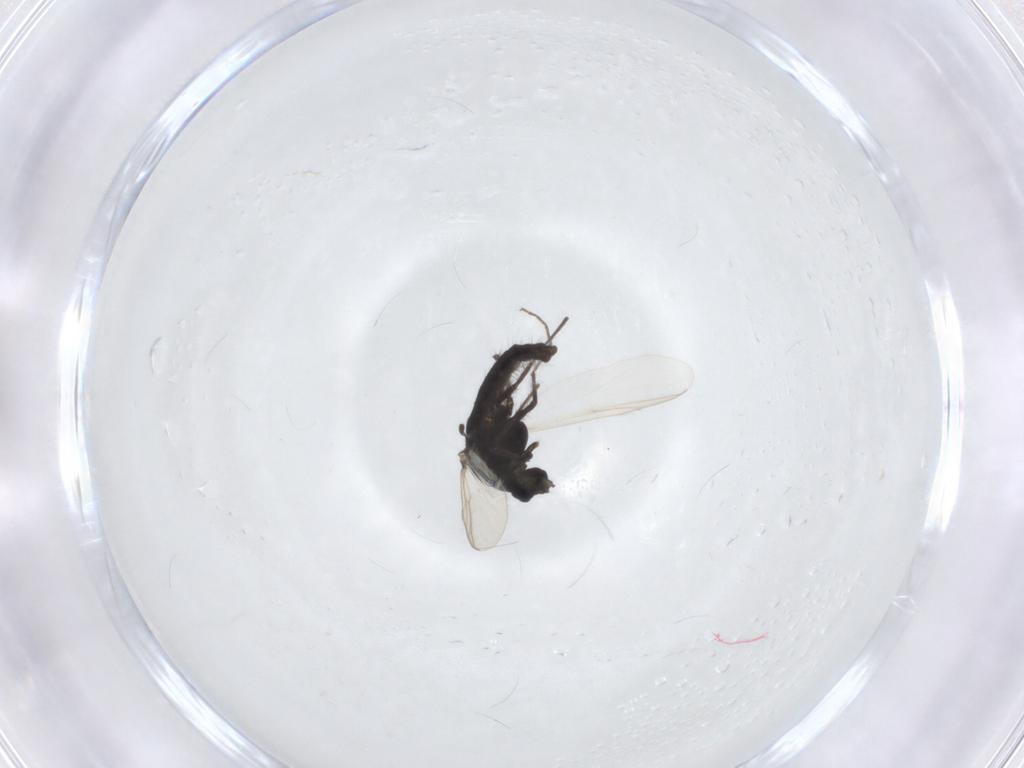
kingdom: Animalia
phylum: Arthropoda
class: Insecta
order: Diptera
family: Chironomidae
